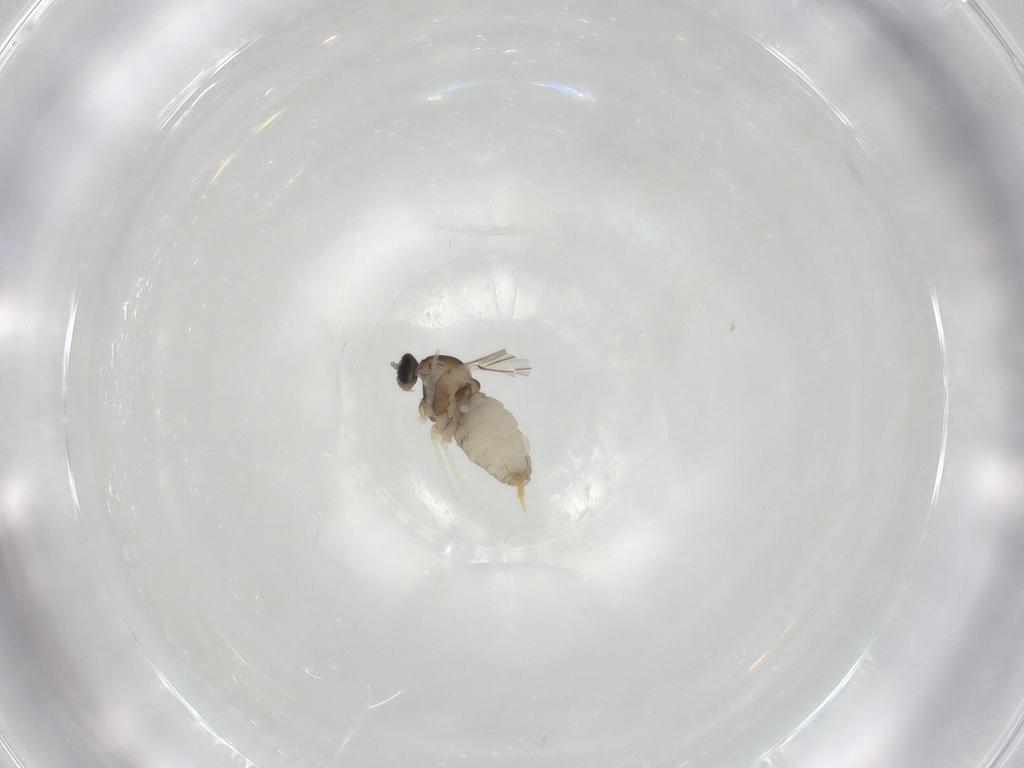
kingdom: Animalia
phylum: Arthropoda
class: Insecta
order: Diptera
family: Cecidomyiidae
